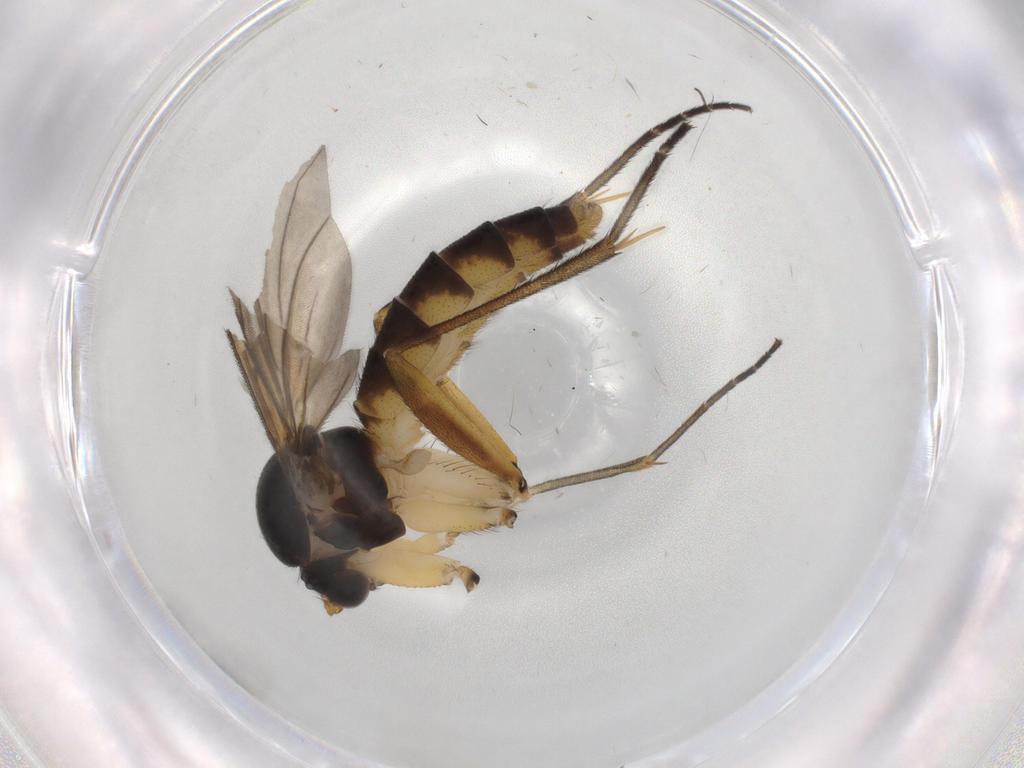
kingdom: Animalia
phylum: Arthropoda
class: Insecta
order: Diptera
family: Mycetophilidae
